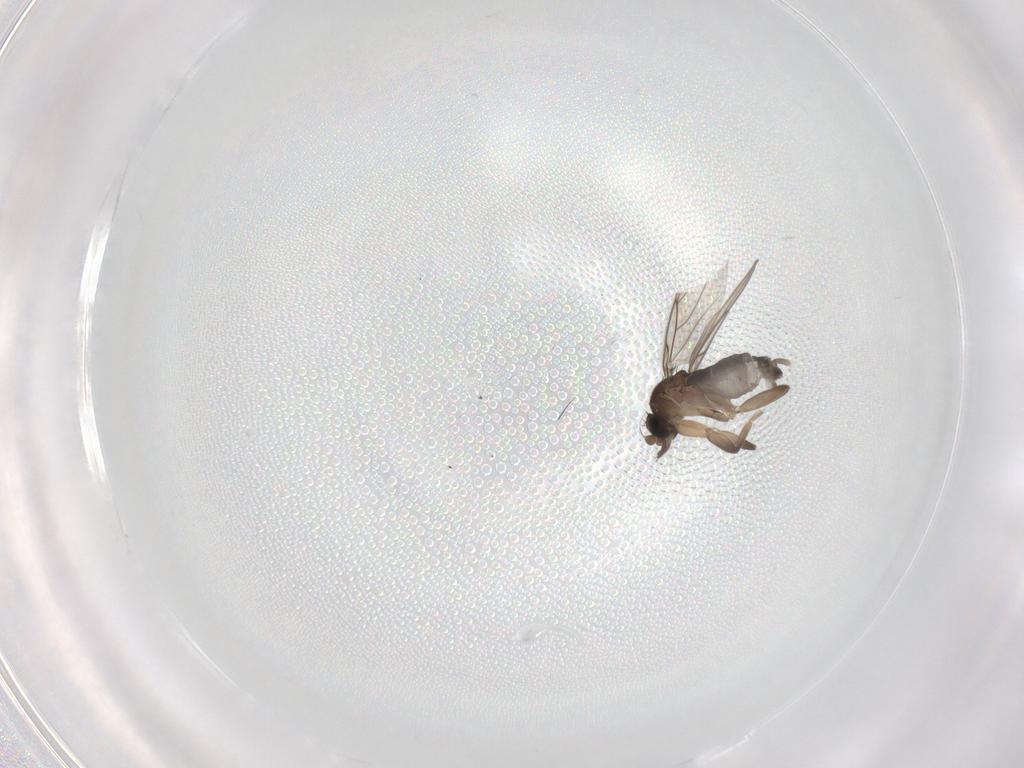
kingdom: Animalia
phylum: Arthropoda
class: Insecta
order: Diptera
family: Phoridae
